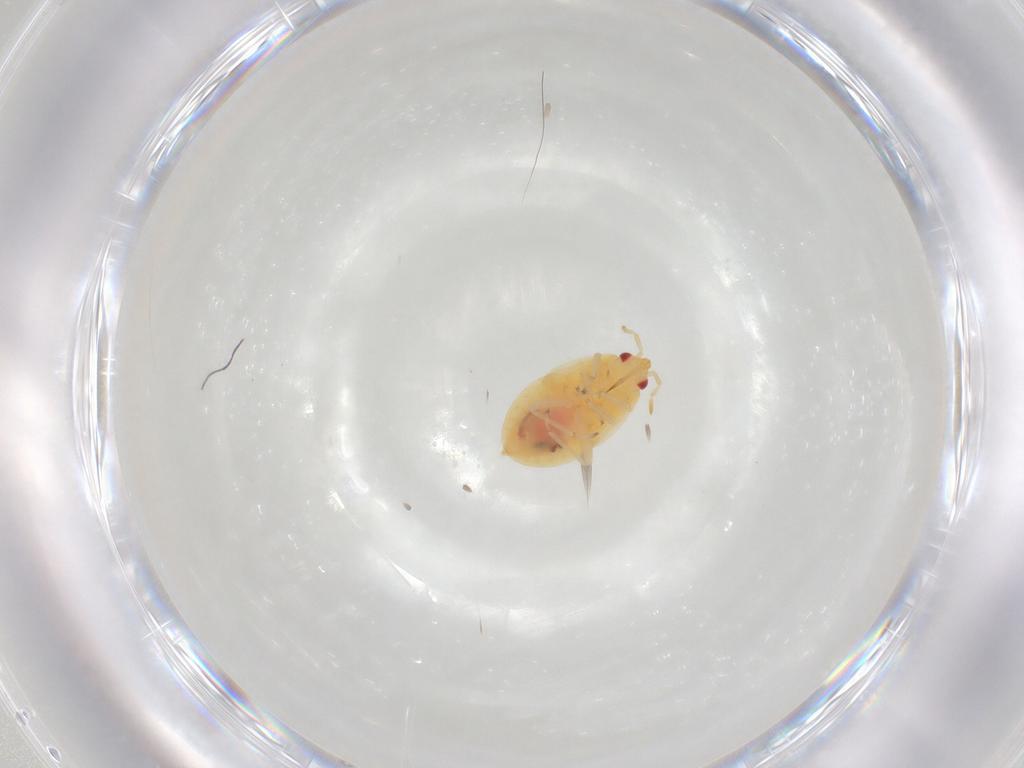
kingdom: Animalia
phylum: Arthropoda
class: Insecta
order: Hemiptera
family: Anthocoridae
